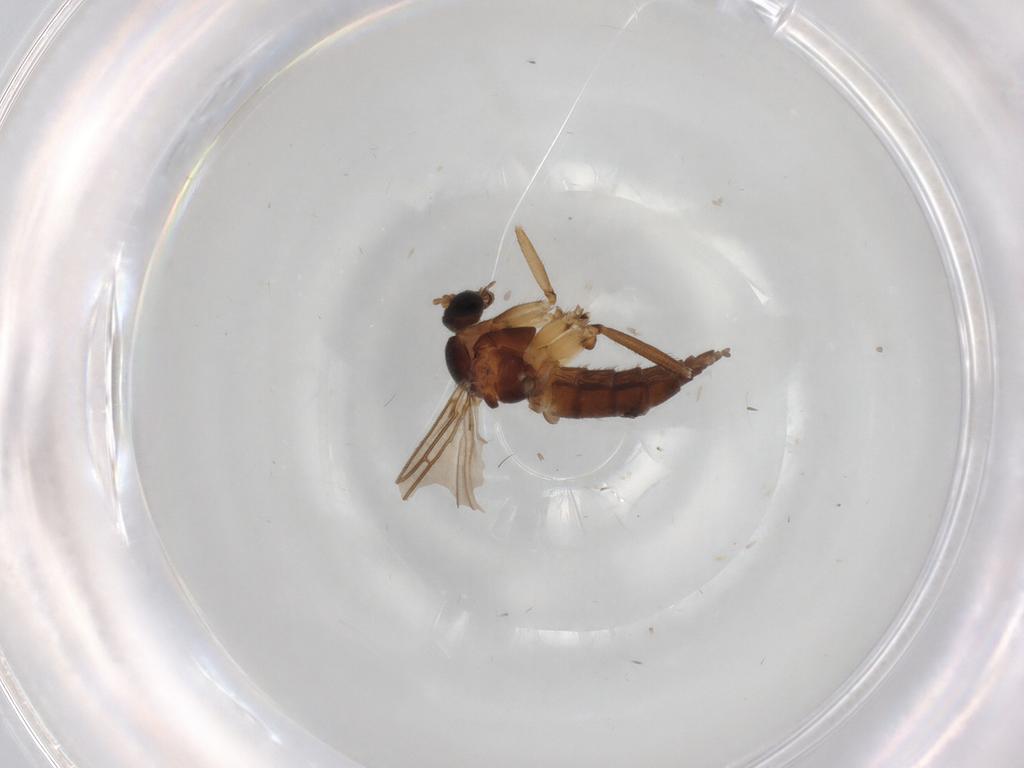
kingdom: Animalia
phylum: Arthropoda
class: Insecta
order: Diptera
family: Sciaridae
